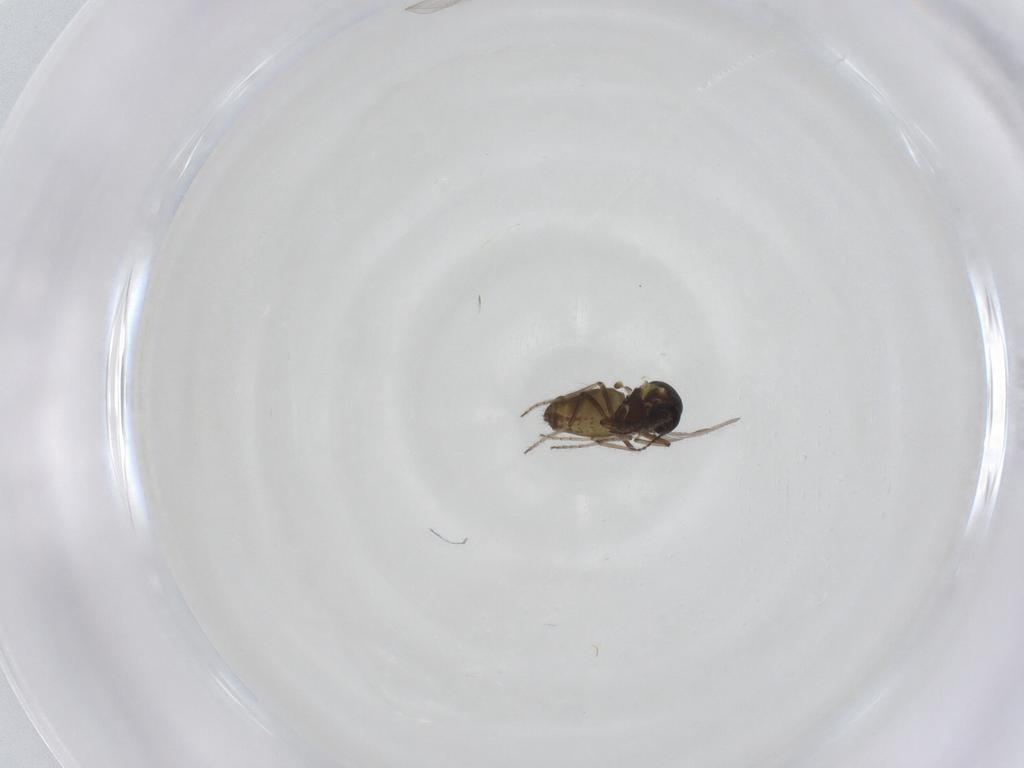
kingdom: Animalia
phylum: Arthropoda
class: Insecta
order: Diptera
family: Ceratopogonidae
